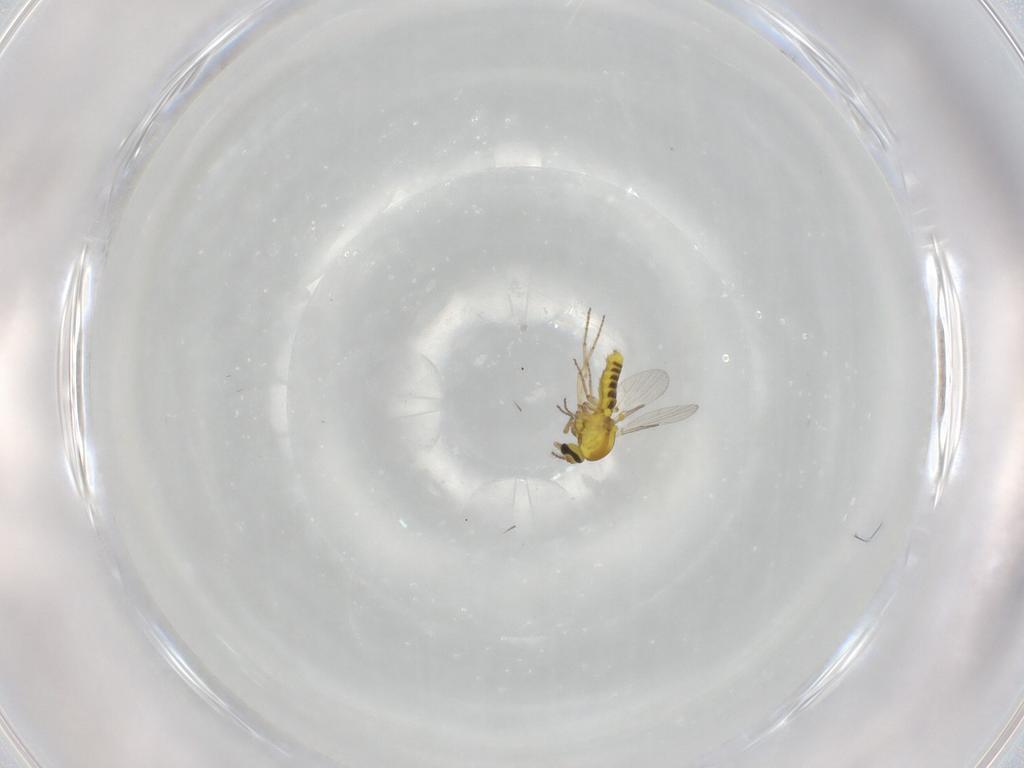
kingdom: Animalia
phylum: Arthropoda
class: Insecta
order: Diptera
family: Ceratopogonidae
